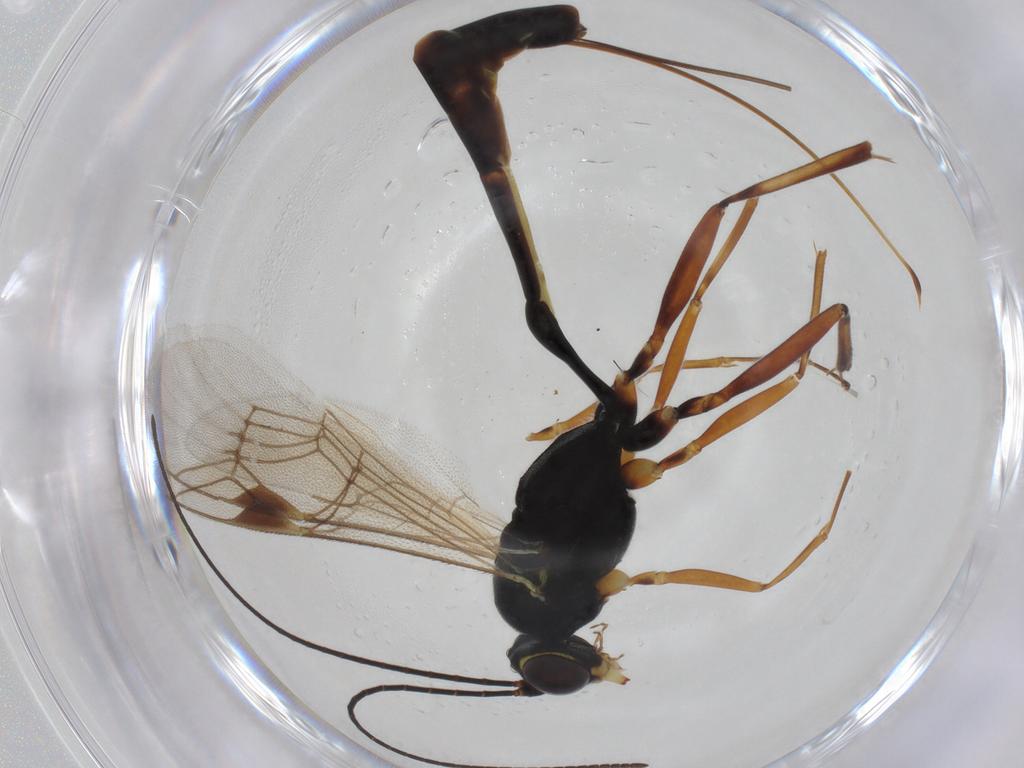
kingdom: Animalia
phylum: Arthropoda
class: Insecta
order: Hymenoptera
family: Ichneumonidae
